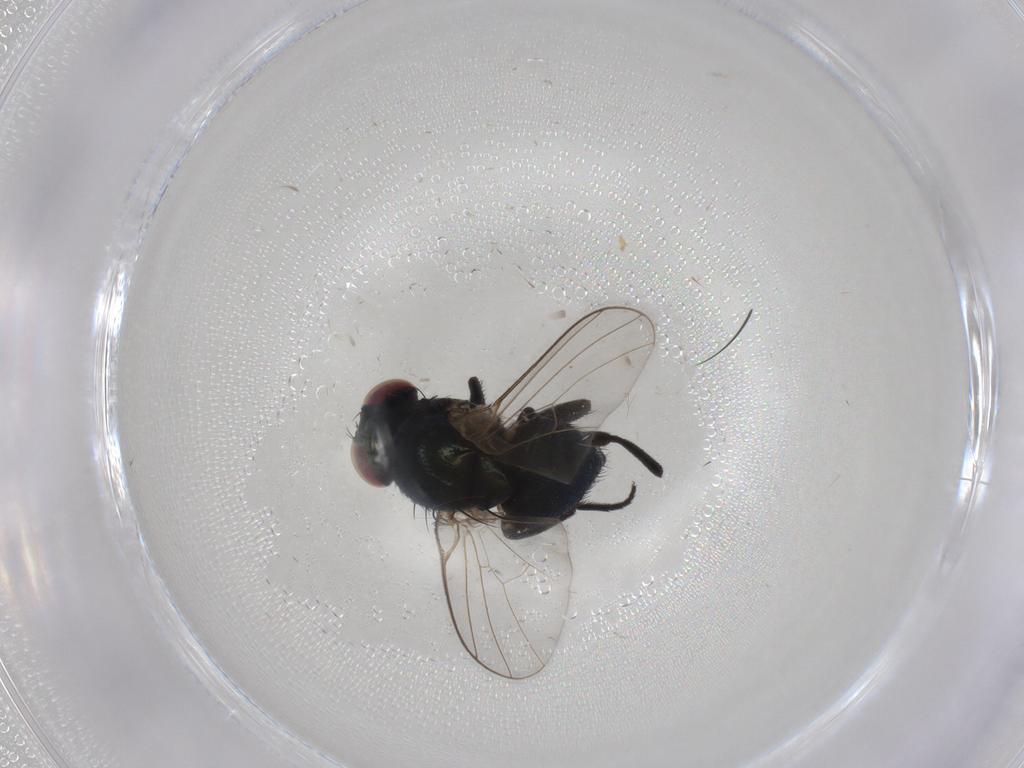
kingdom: Animalia
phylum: Arthropoda
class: Insecta
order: Diptera
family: Agromyzidae
